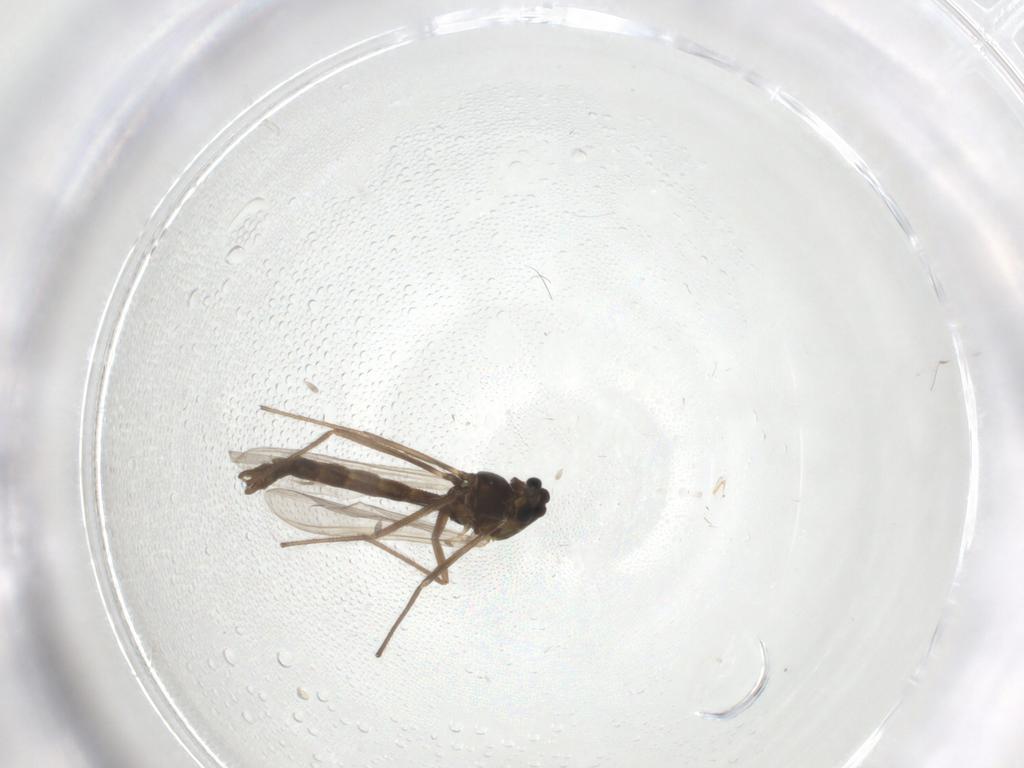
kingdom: Animalia
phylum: Arthropoda
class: Insecta
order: Diptera
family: Chironomidae
